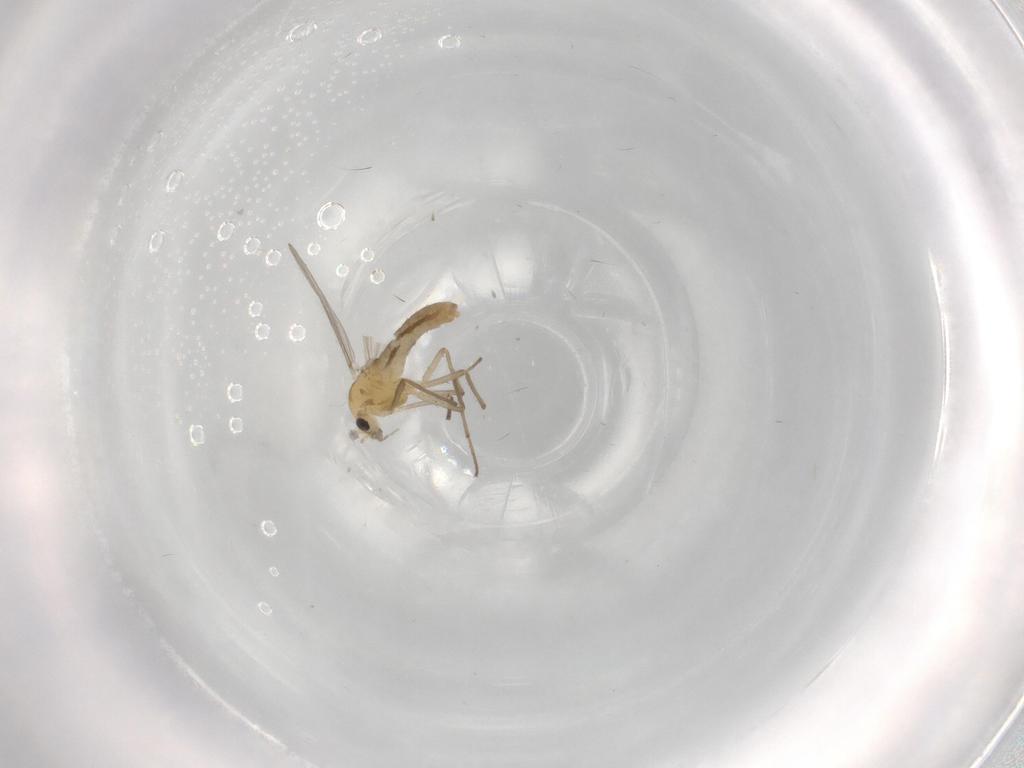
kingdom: Animalia
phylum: Arthropoda
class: Insecta
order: Diptera
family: Chironomidae
